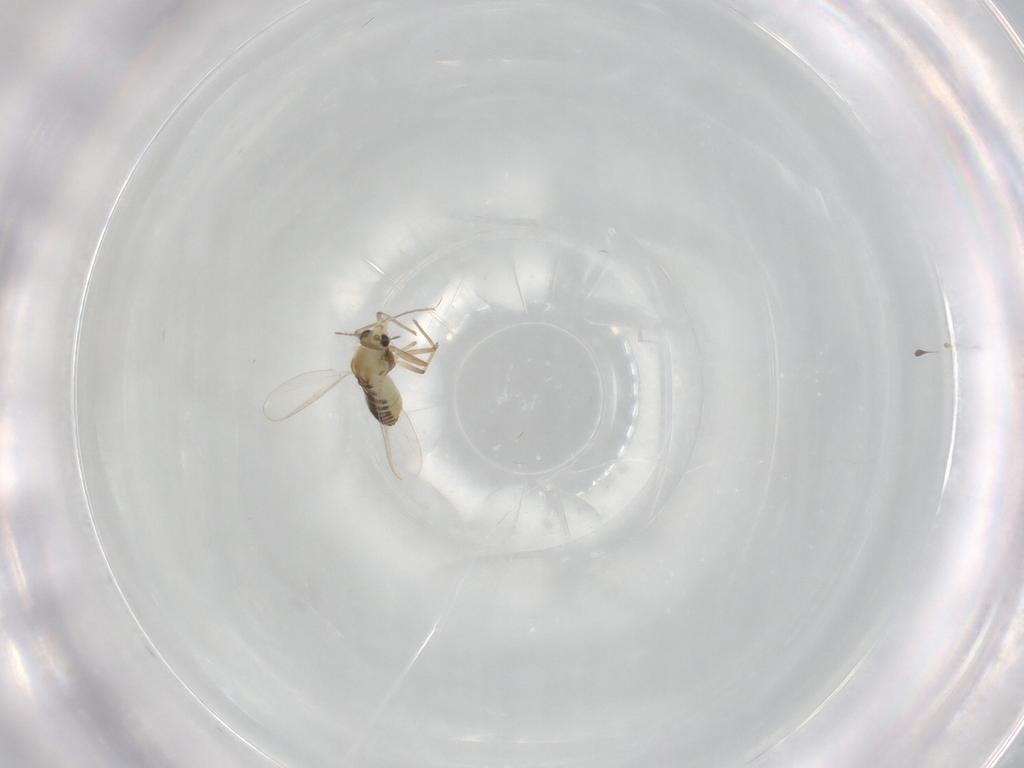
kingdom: Animalia
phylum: Arthropoda
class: Insecta
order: Diptera
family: Chironomidae
